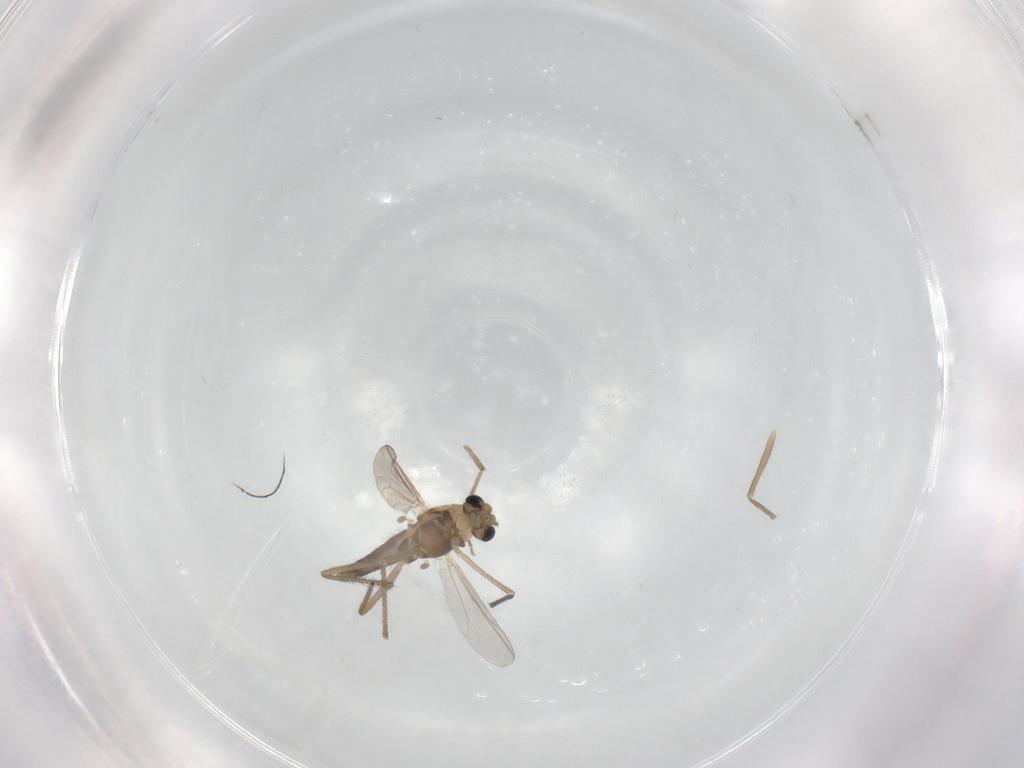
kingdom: Animalia
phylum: Arthropoda
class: Insecta
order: Diptera
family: Chironomidae
